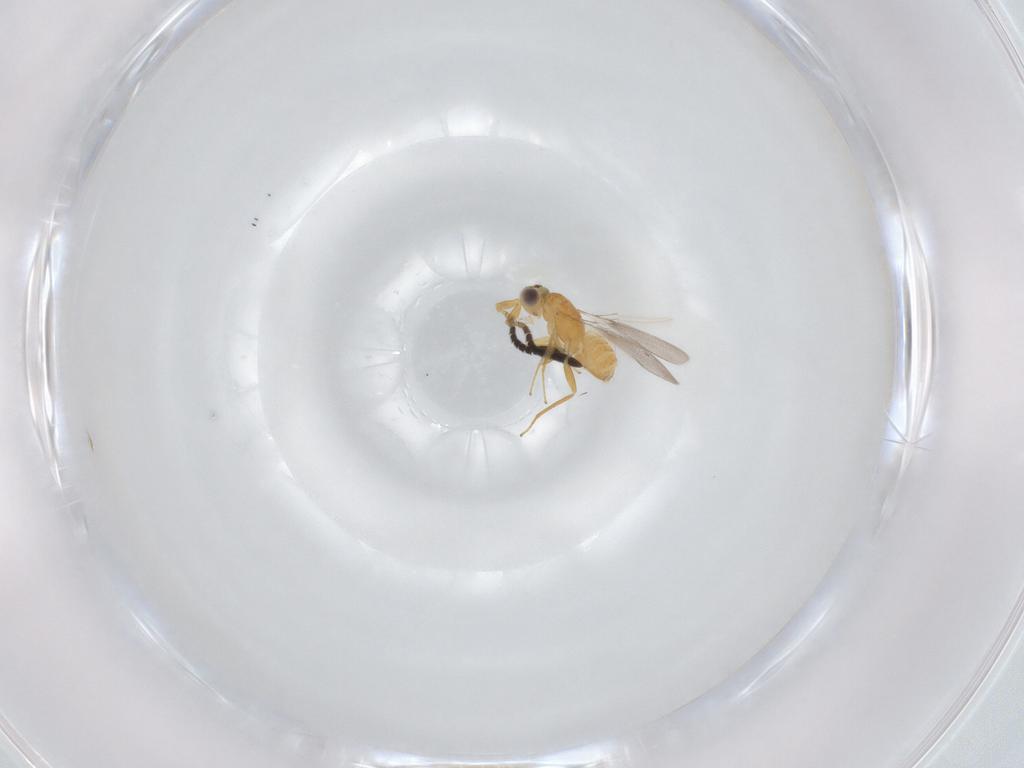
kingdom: Animalia
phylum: Arthropoda
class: Insecta
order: Hymenoptera
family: Mymaridae
